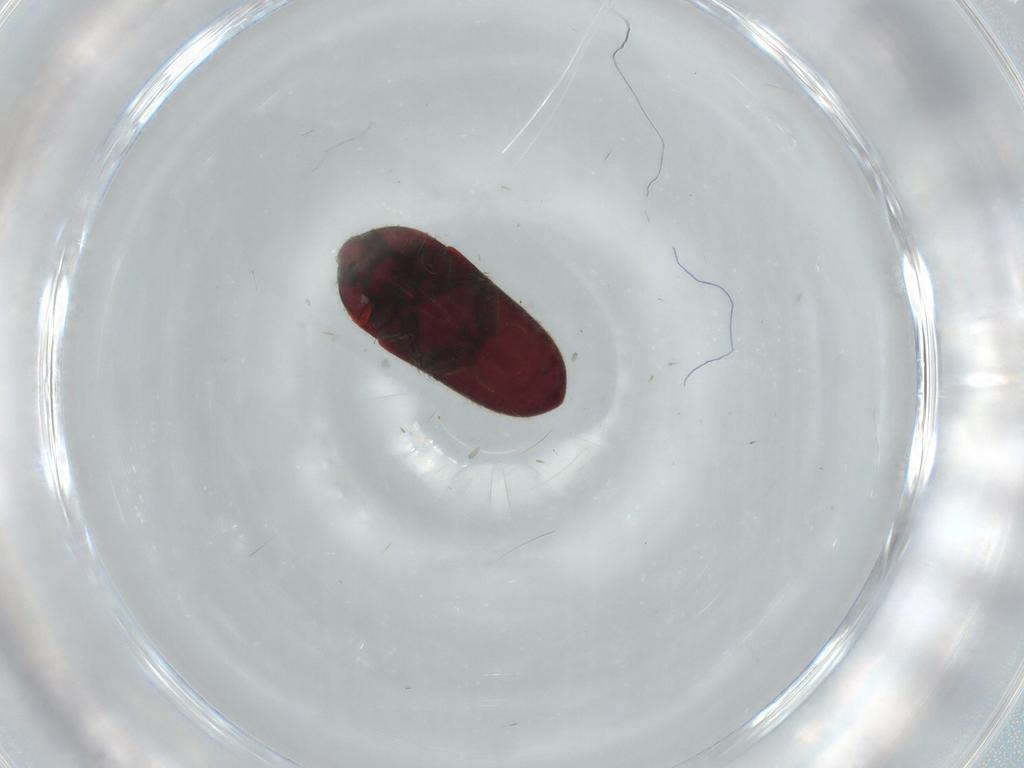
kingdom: Animalia
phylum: Arthropoda
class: Insecta
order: Coleoptera
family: Throscidae
